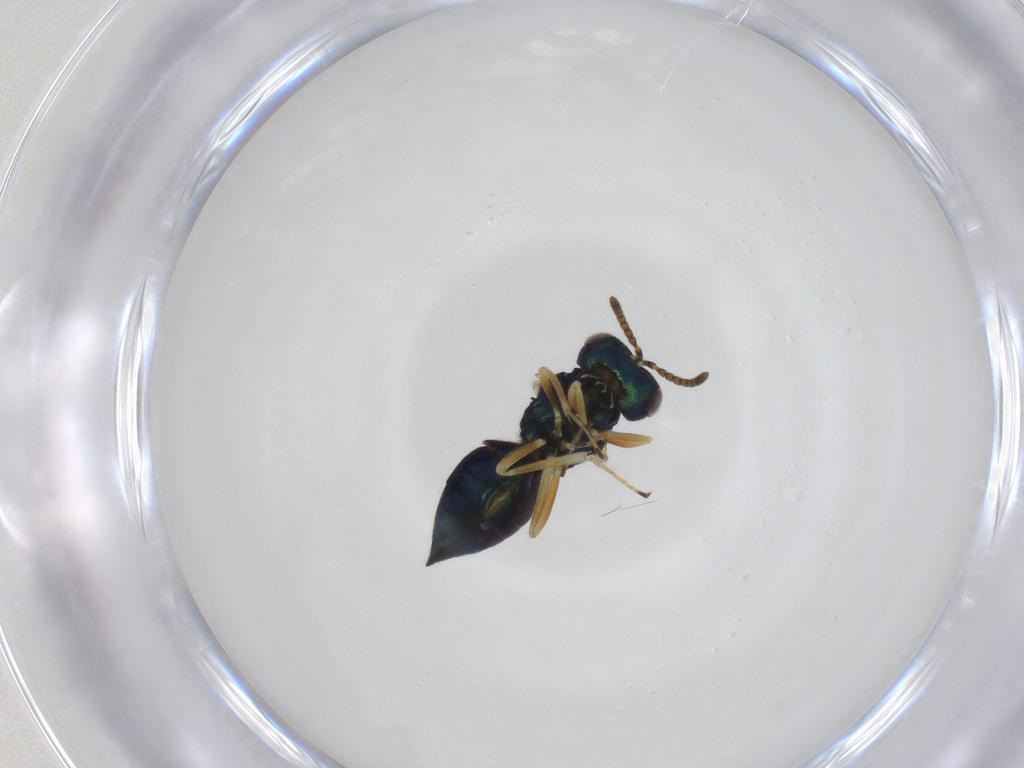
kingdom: Animalia
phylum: Arthropoda
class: Insecta
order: Hymenoptera
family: Pteromalidae
